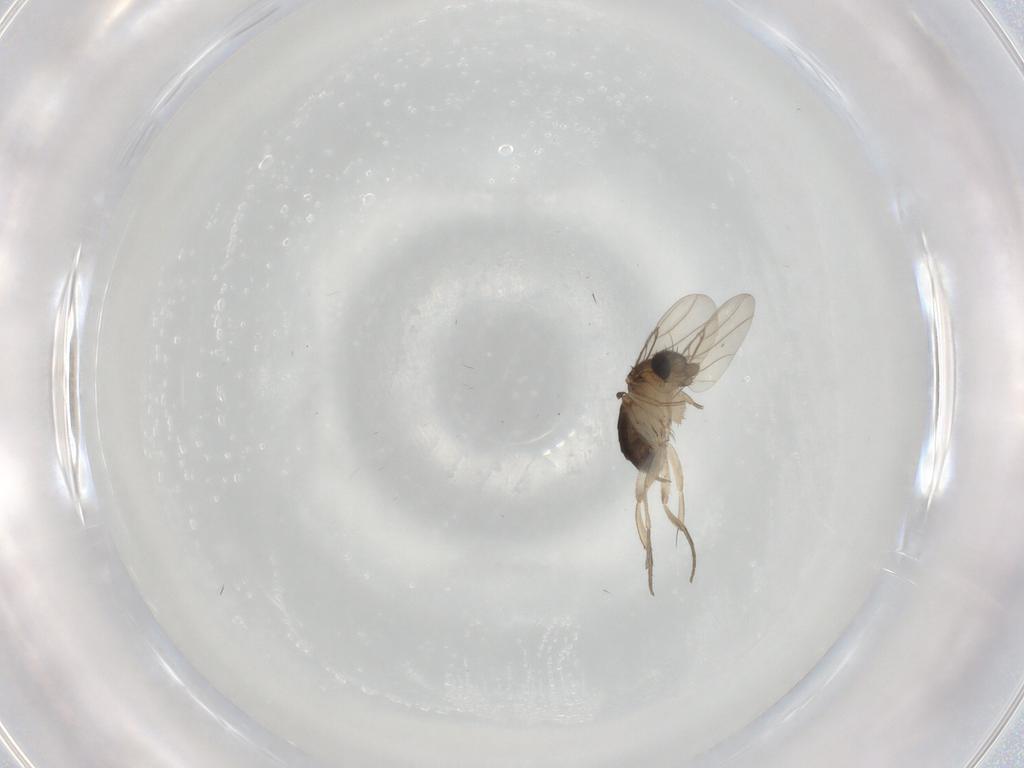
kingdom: Animalia
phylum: Arthropoda
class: Insecta
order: Diptera
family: Phoridae
